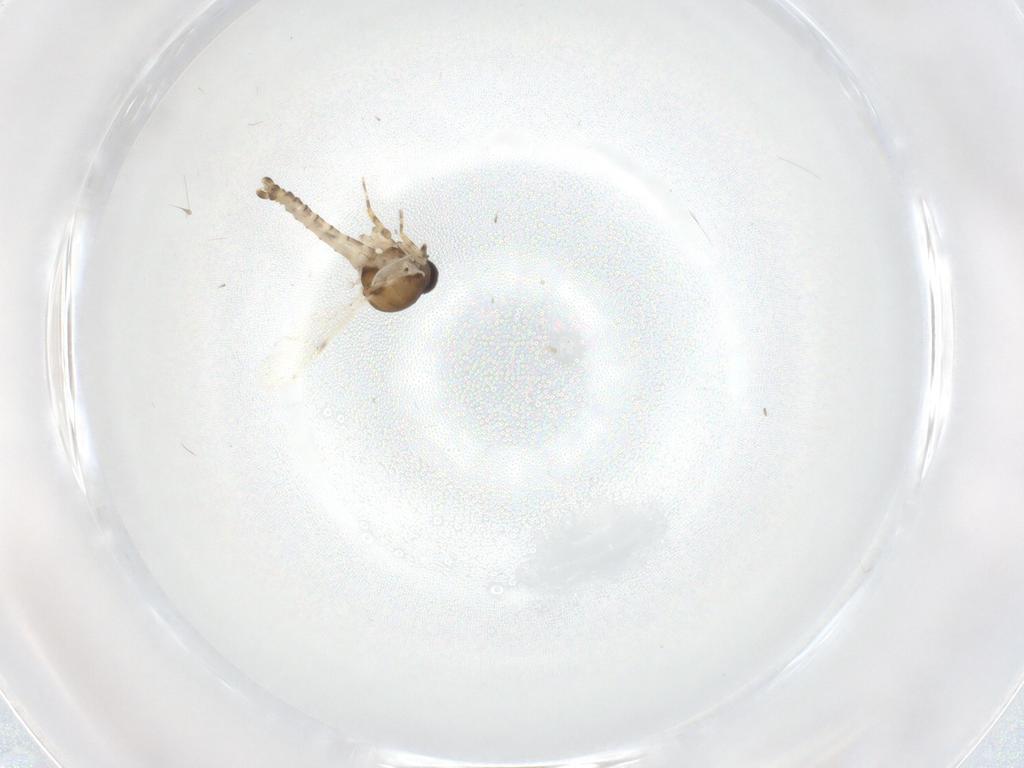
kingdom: Animalia
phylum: Arthropoda
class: Insecta
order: Diptera
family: Ceratopogonidae
